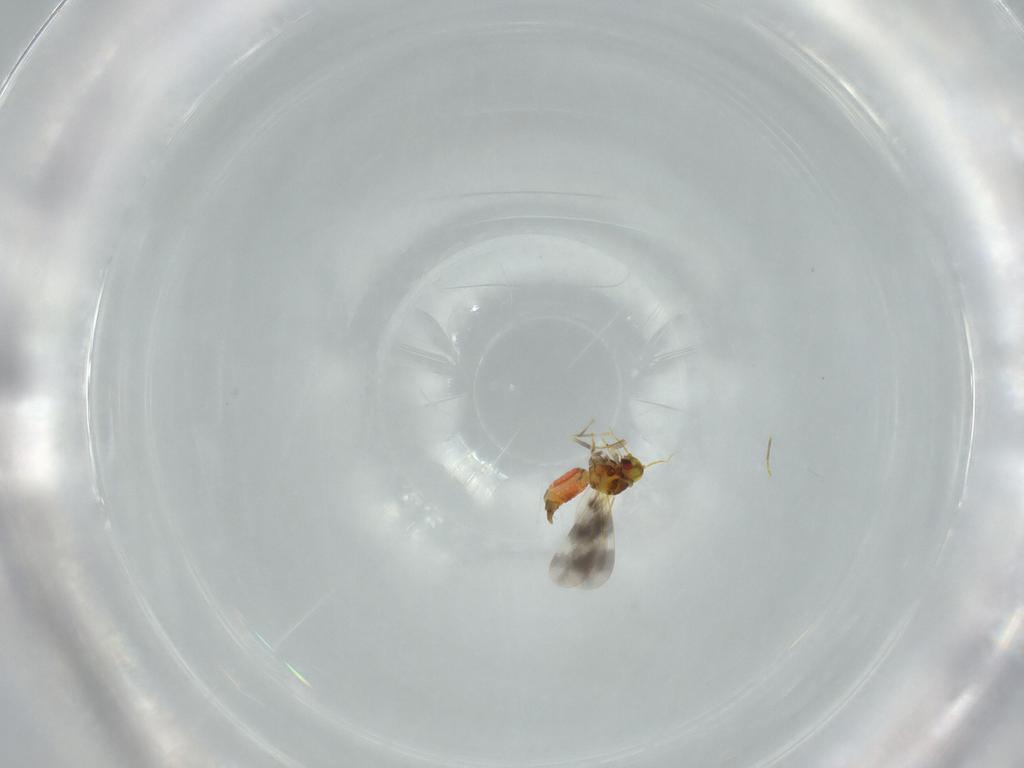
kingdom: Animalia
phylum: Arthropoda
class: Insecta
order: Hemiptera
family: Aleyrodidae
